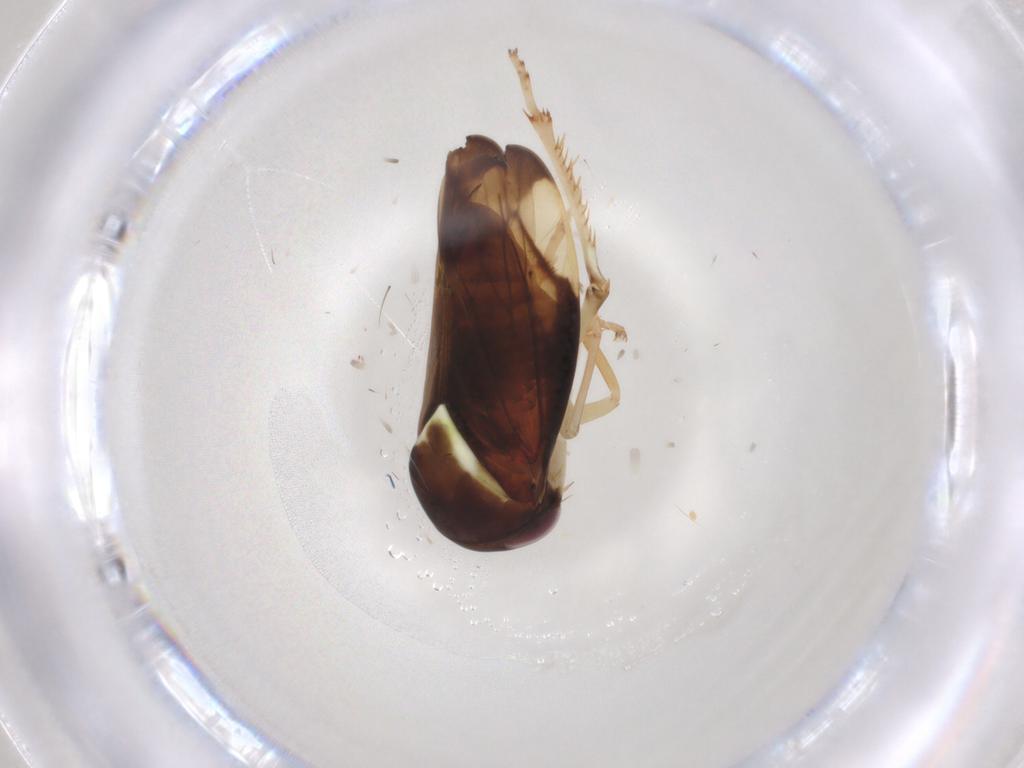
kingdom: Animalia
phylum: Arthropoda
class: Insecta
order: Hemiptera
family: Cicadellidae
